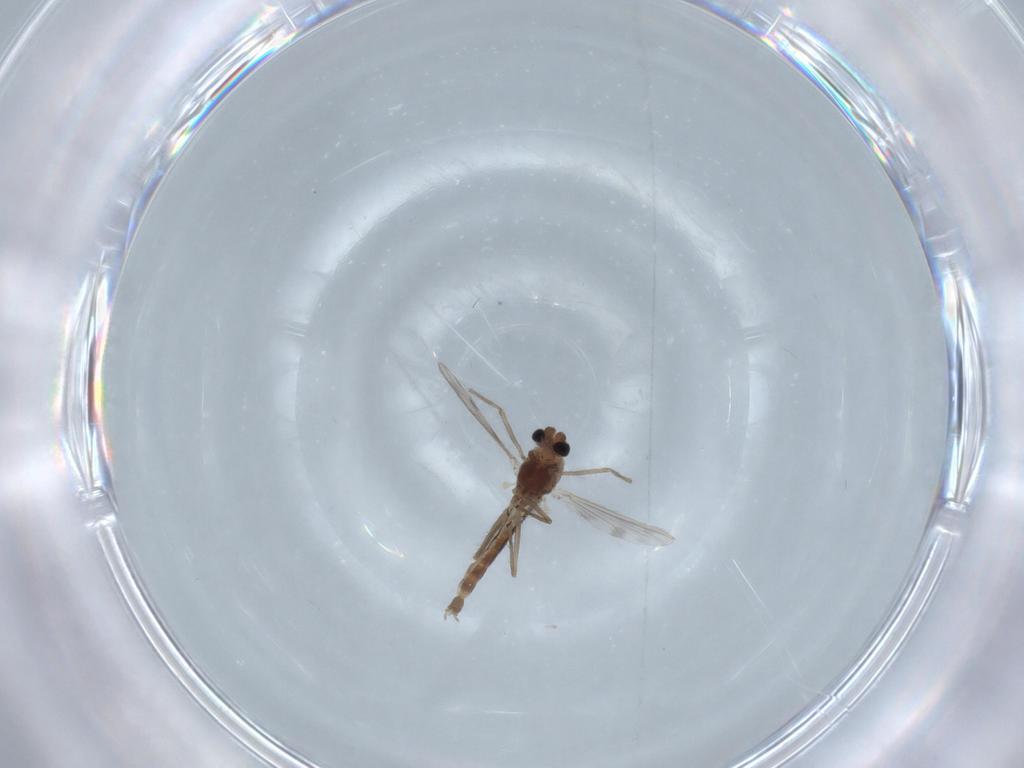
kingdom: Animalia
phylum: Arthropoda
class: Insecta
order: Diptera
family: Chironomidae
